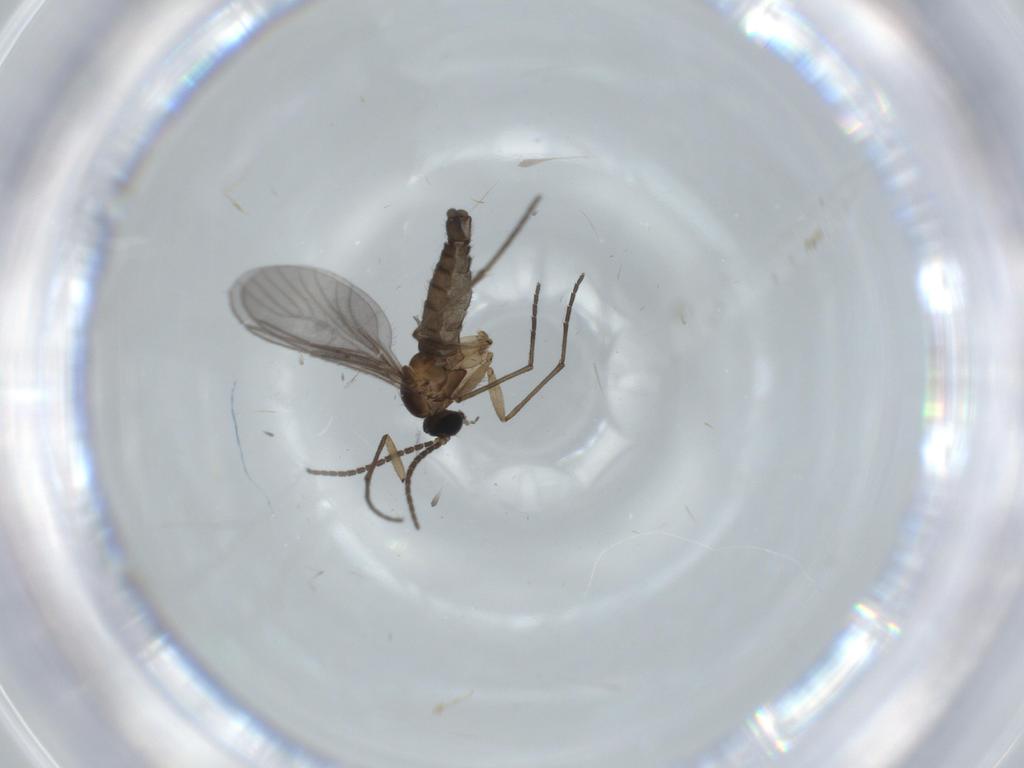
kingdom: Animalia
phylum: Arthropoda
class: Insecta
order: Diptera
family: Sciaridae
